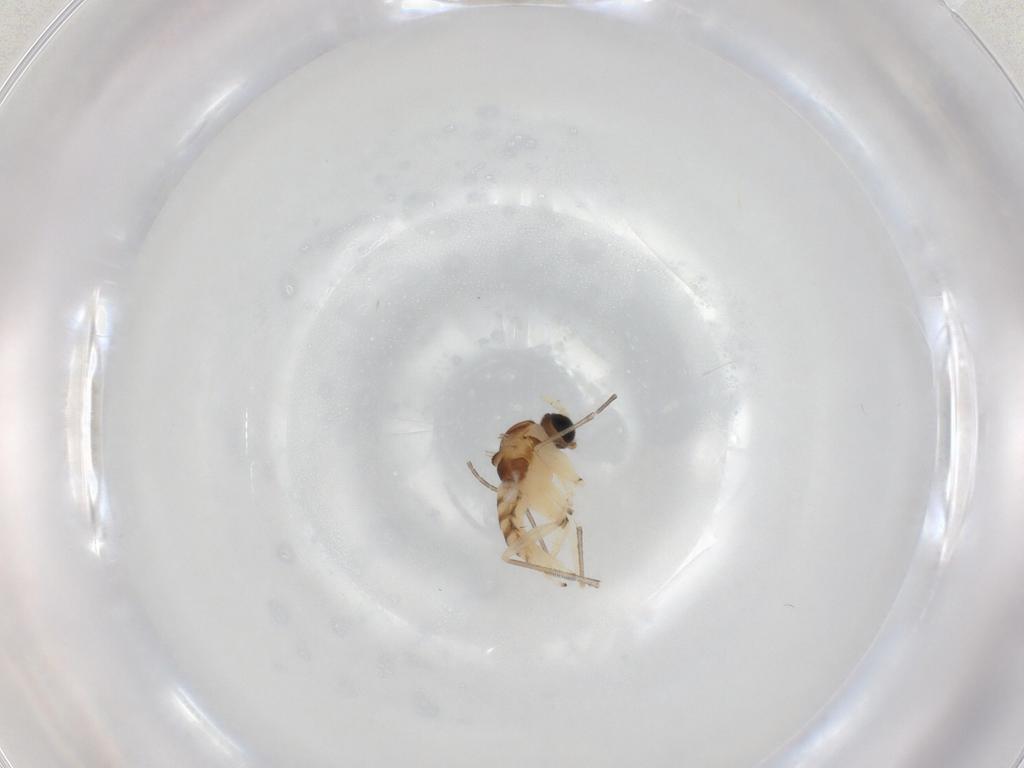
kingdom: Animalia
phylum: Arthropoda
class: Insecta
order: Diptera
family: Sciaridae
